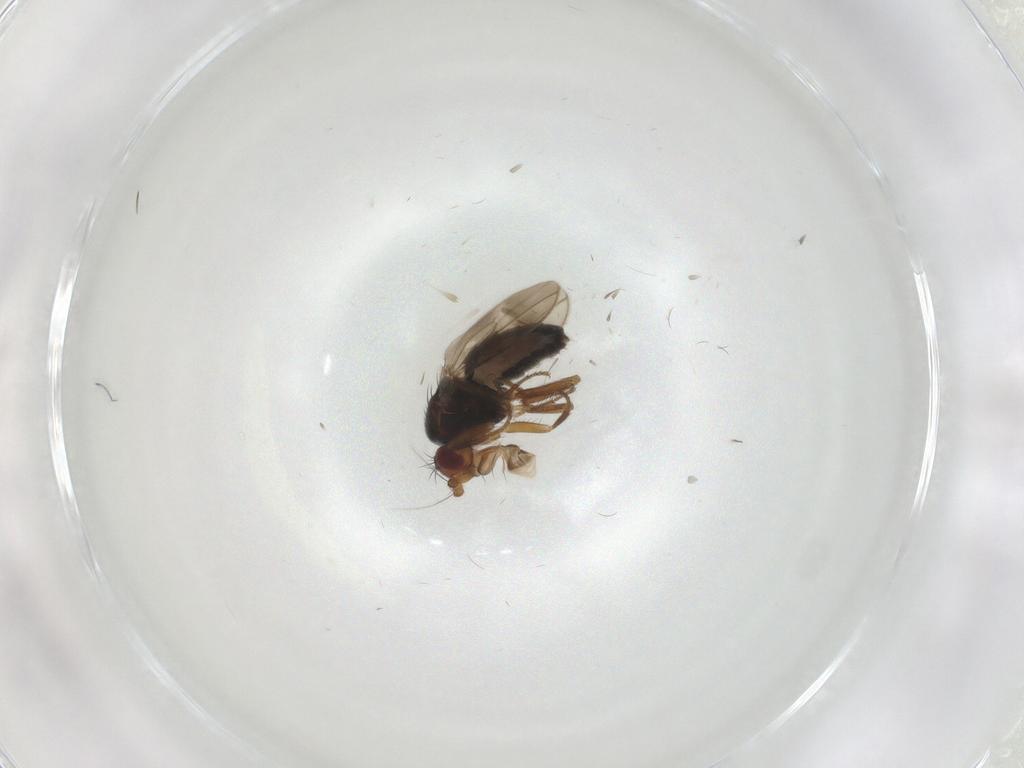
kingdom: Animalia
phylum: Arthropoda
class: Insecta
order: Diptera
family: Sphaeroceridae
